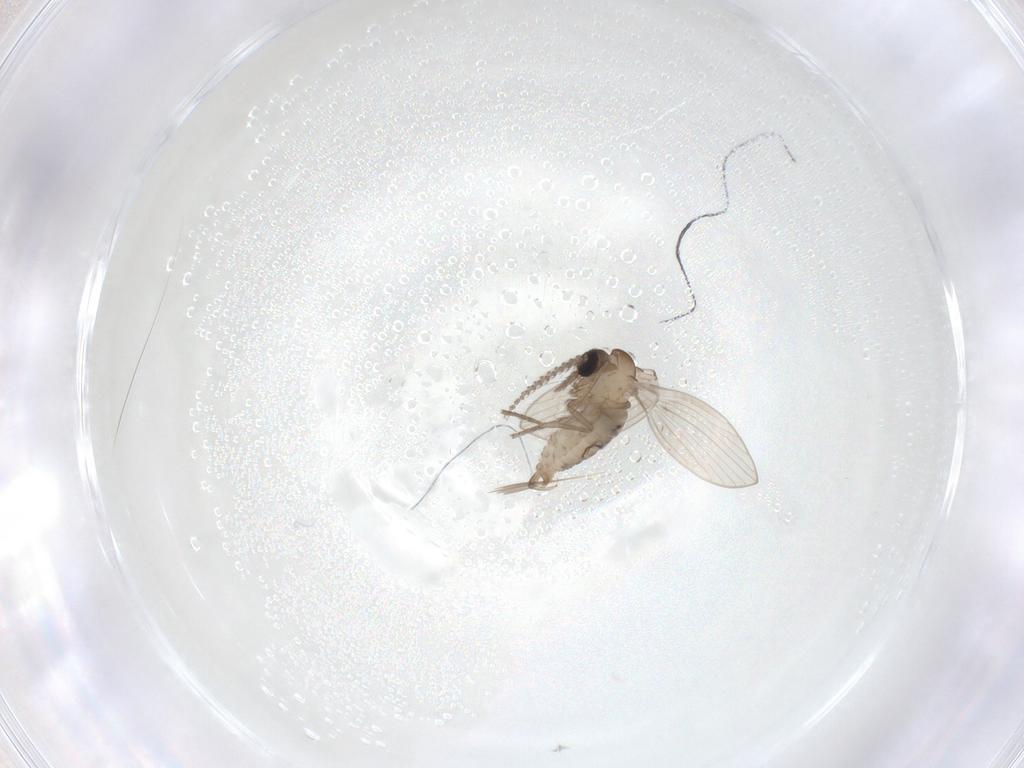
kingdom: Animalia
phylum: Arthropoda
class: Insecta
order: Diptera
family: Psychodidae
